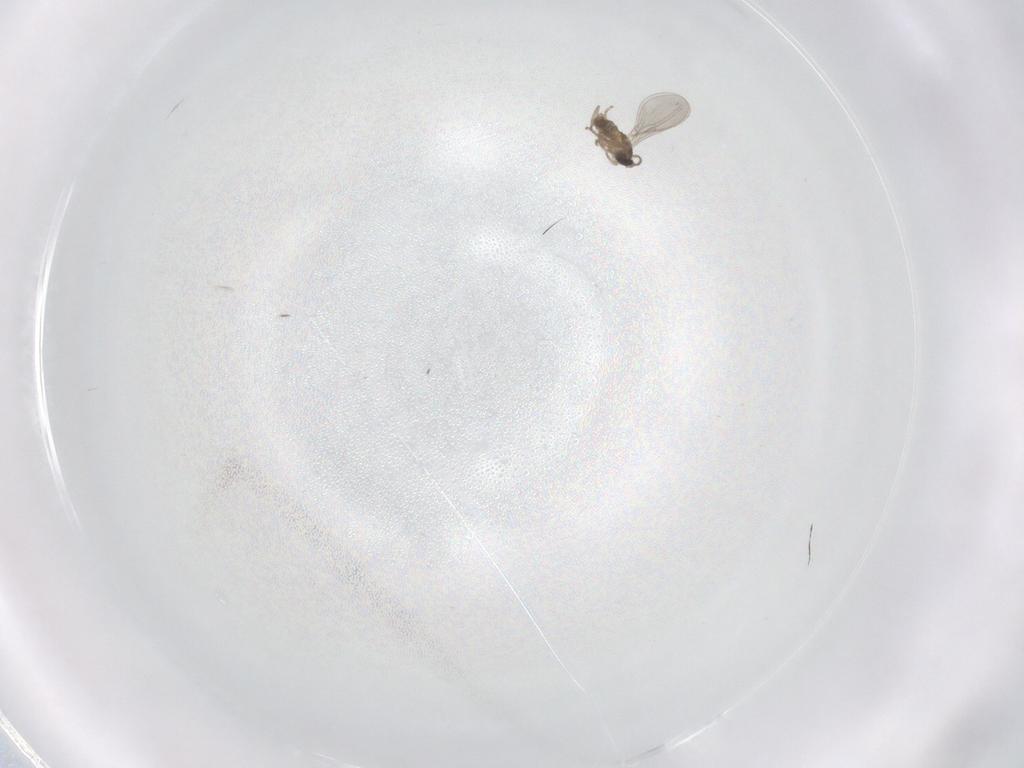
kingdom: Animalia
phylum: Arthropoda
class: Insecta
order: Diptera
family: Cecidomyiidae
